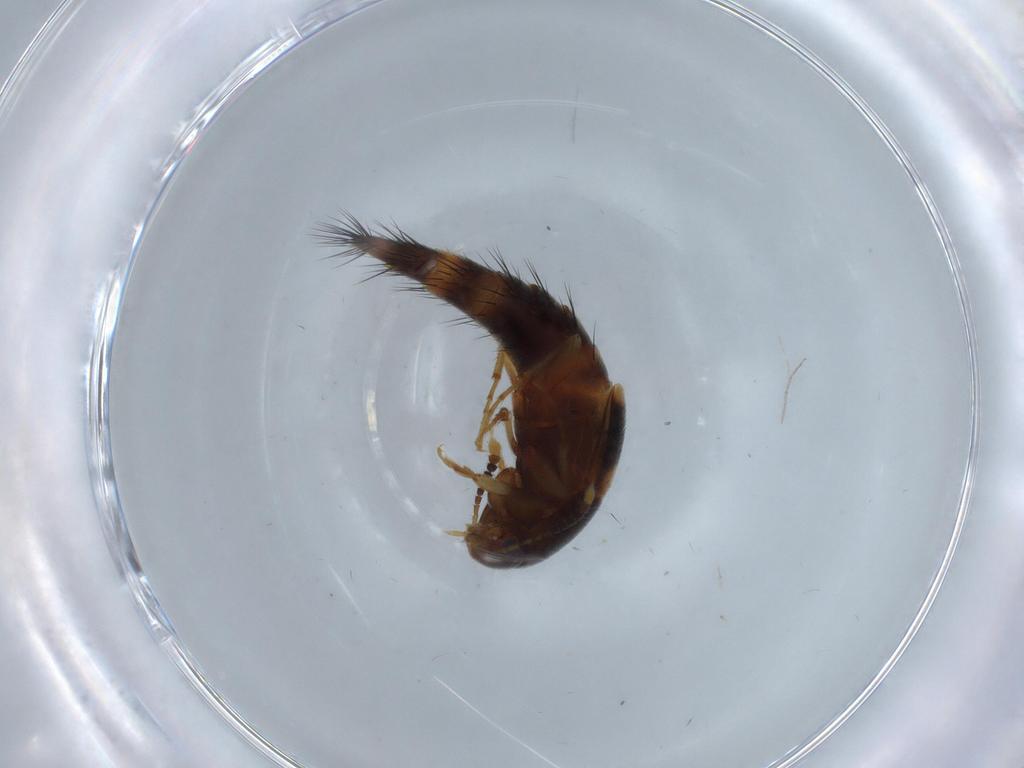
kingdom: Animalia
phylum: Arthropoda
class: Insecta
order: Coleoptera
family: Staphylinidae
